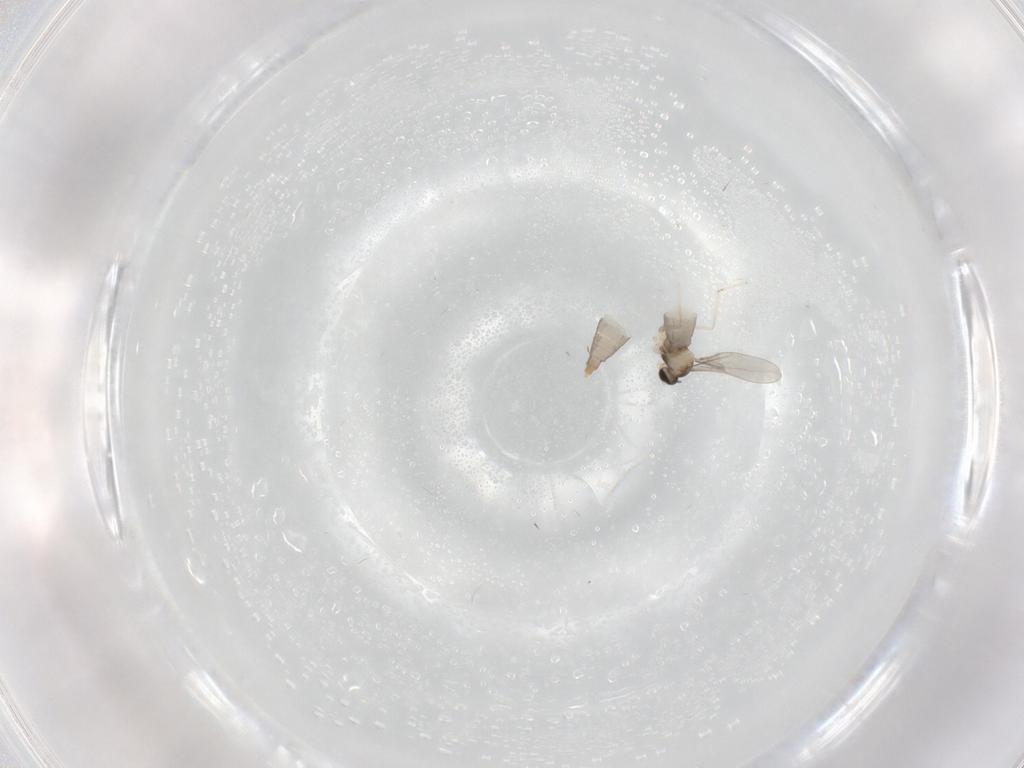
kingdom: Animalia
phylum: Arthropoda
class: Insecta
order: Diptera
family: Cecidomyiidae
